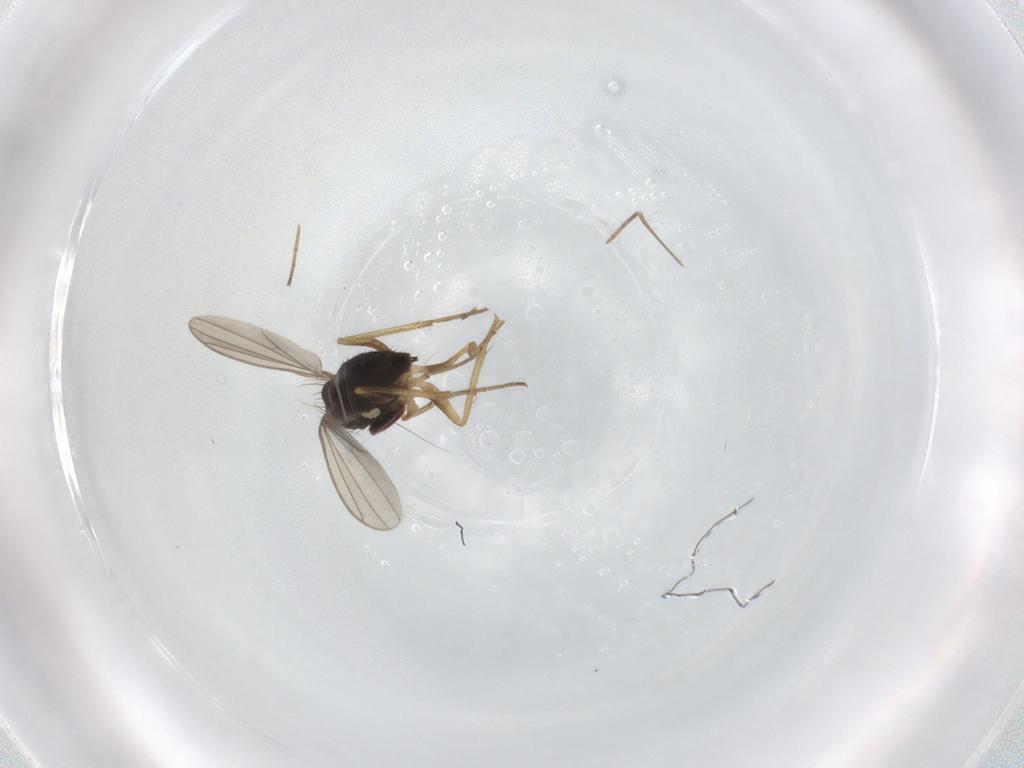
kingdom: Animalia
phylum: Arthropoda
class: Insecta
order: Diptera
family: Dolichopodidae
